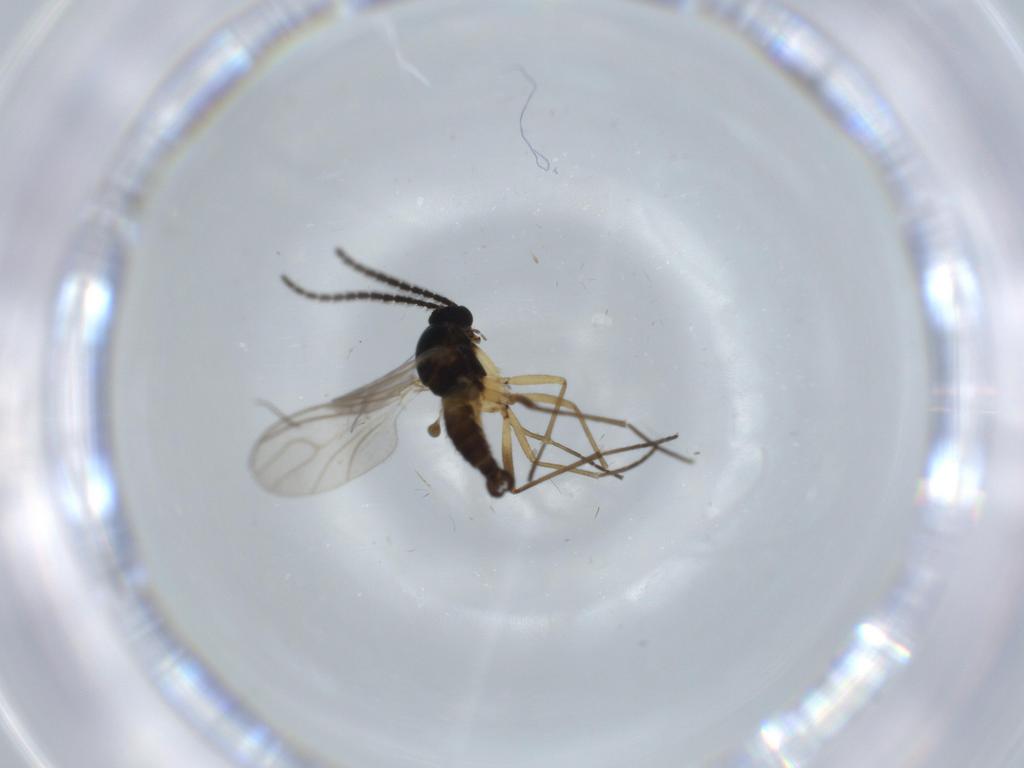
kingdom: Animalia
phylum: Arthropoda
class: Insecta
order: Diptera
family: Sciaridae
